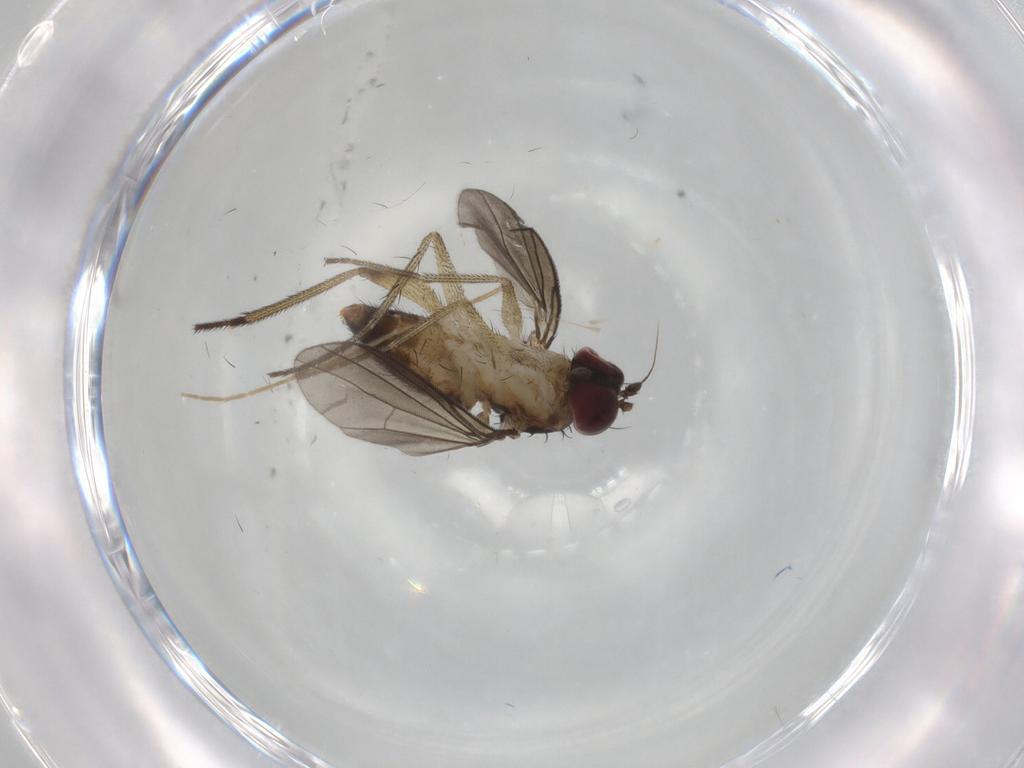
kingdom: Animalia
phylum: Arthropoda
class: Insecta
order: Diptera
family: Dolichopodidae
